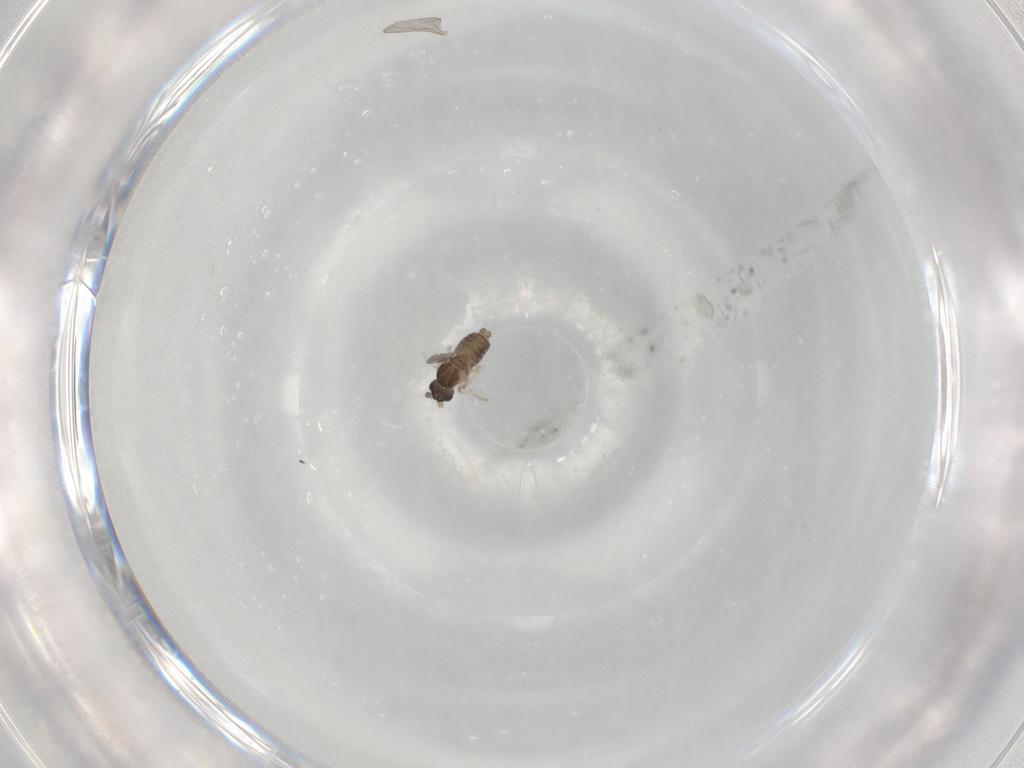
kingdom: Animalia
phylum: Arthropoda
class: Insecta
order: Diptera
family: Cecidomyiidae
